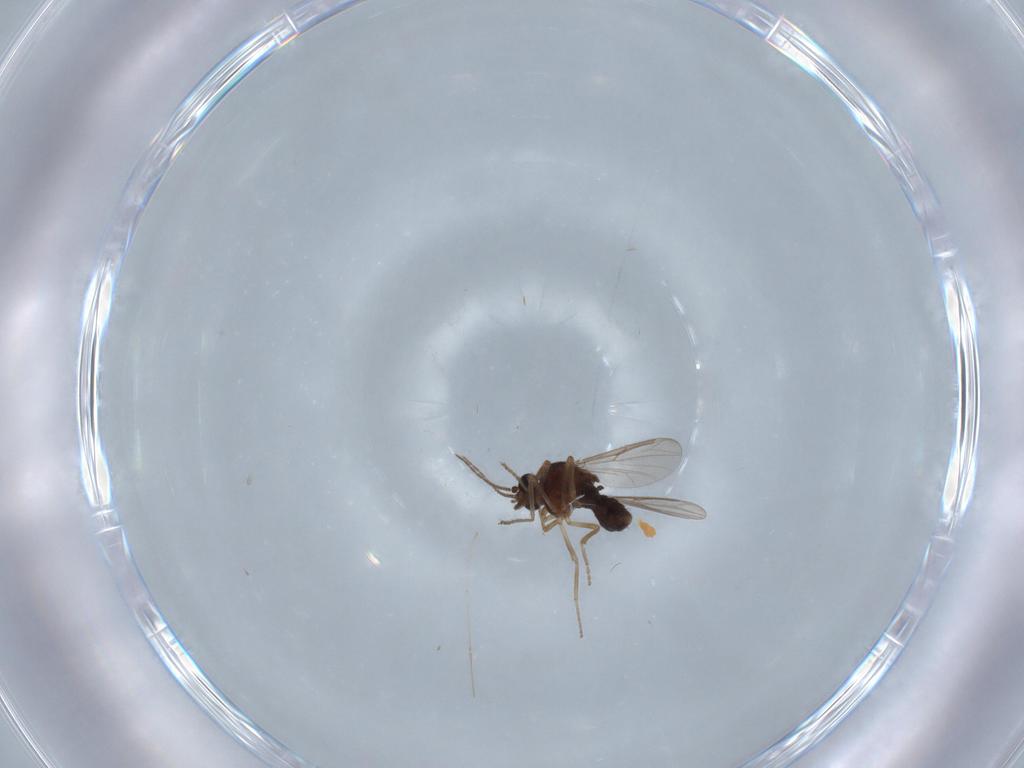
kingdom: Animalia
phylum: Arthropoda
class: Insecta
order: Diptera
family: Ceratopogonidae
